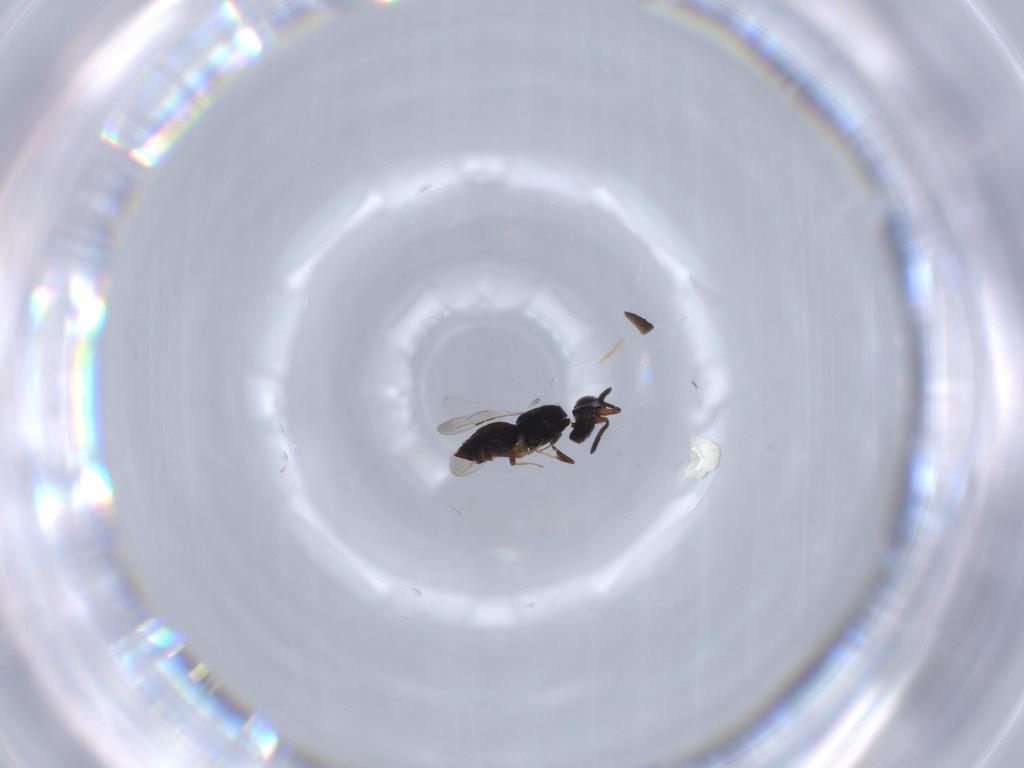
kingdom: Animalia
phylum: Arthropoda
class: Insecta
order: Hymenoptera
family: Ceraphronidae
